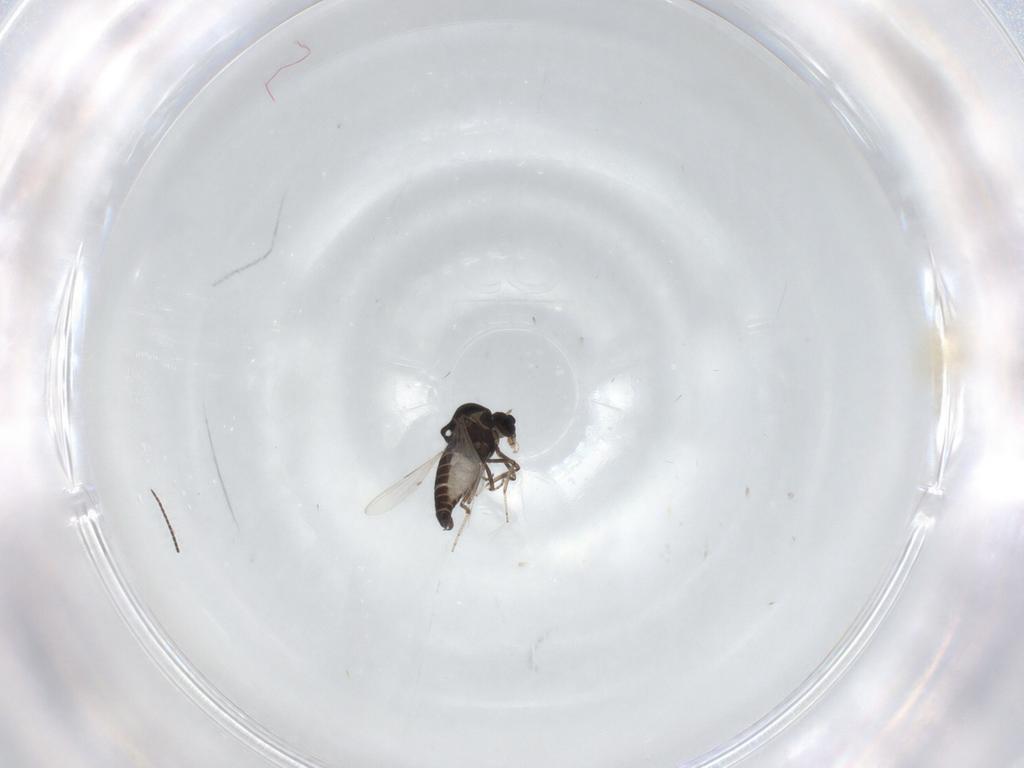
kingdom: Animalia
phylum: Arthropoda
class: Insecta
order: Diptera
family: Ceratopogonidae
